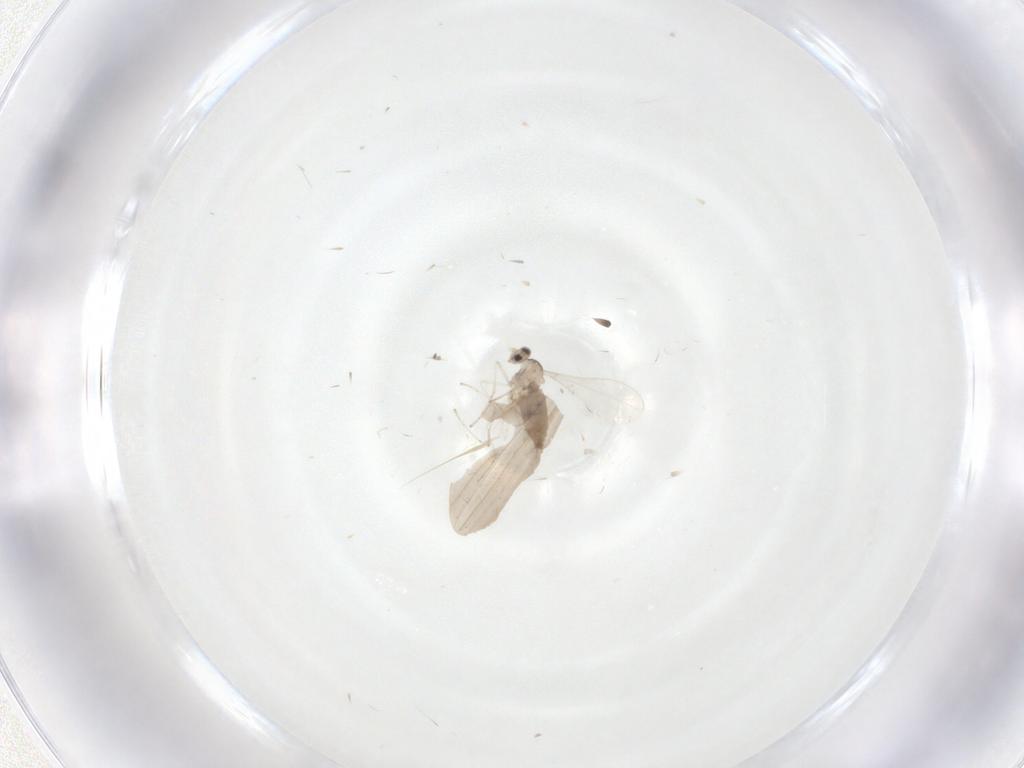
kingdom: Animalia
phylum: Arthropoda
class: Insecta
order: Diptera
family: Cecidomyiidae
